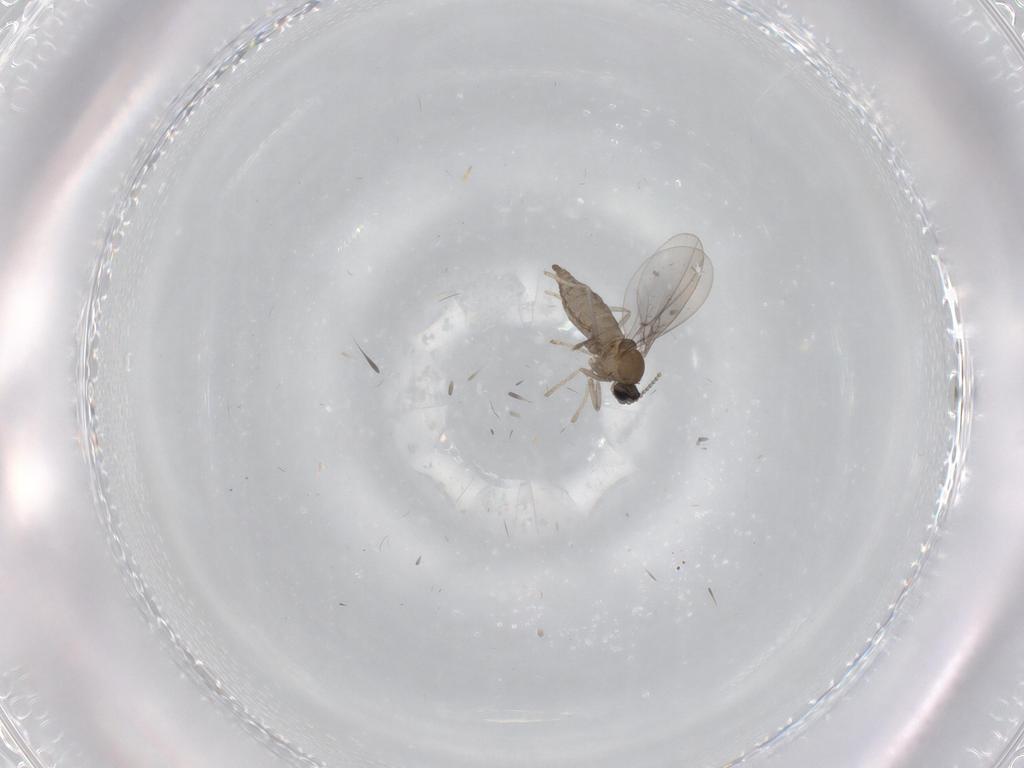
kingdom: Animalia
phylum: Arthropoda
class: Insecta
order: Diptera
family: Cecidomyiidae
